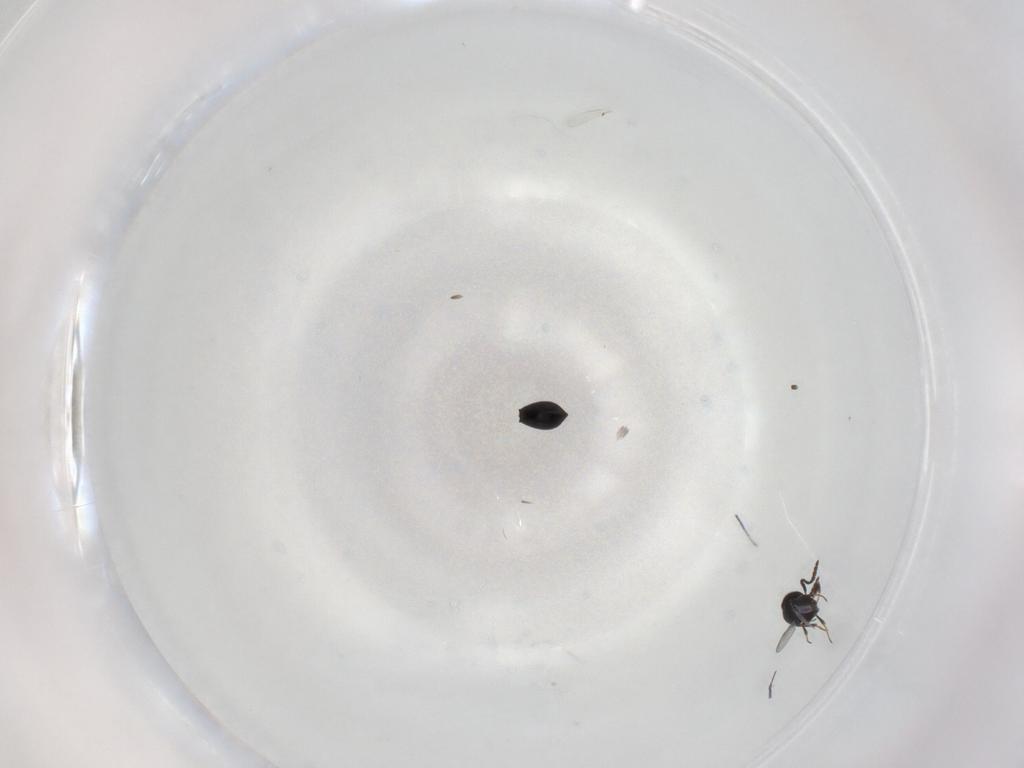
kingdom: Animalia
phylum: Arthropoda
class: Insecta
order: Hymenoptera
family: Scelionidae
